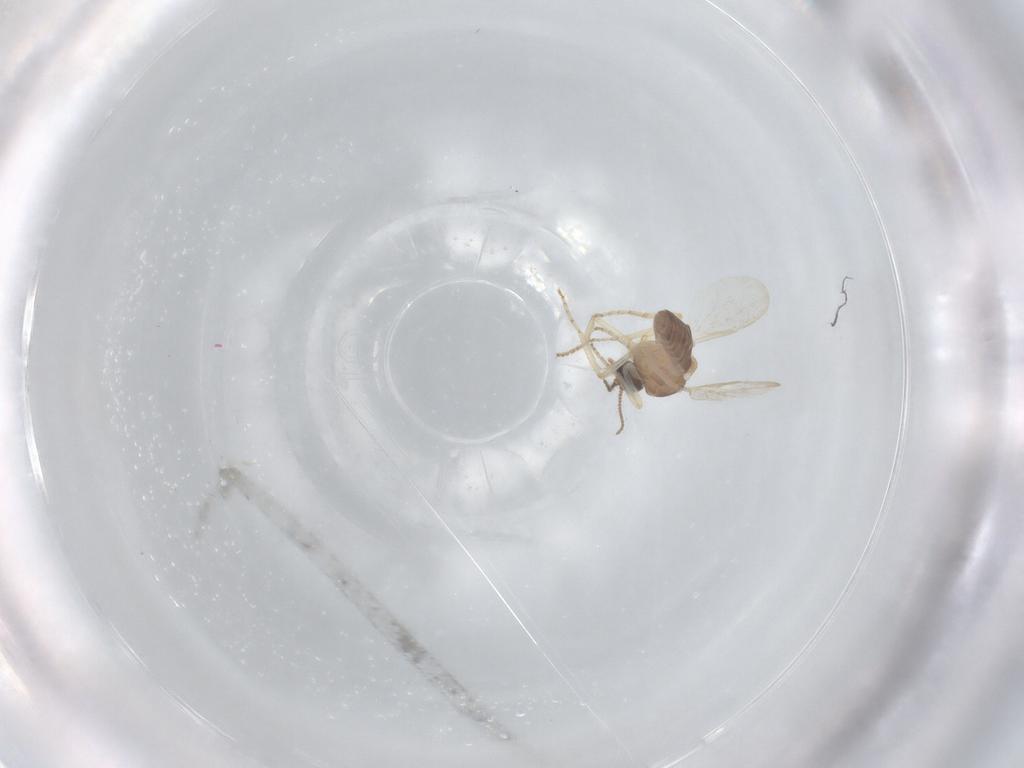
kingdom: Animalia
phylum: Arthropoda
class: Insecta
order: Diptera
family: Ceratopogonidae
